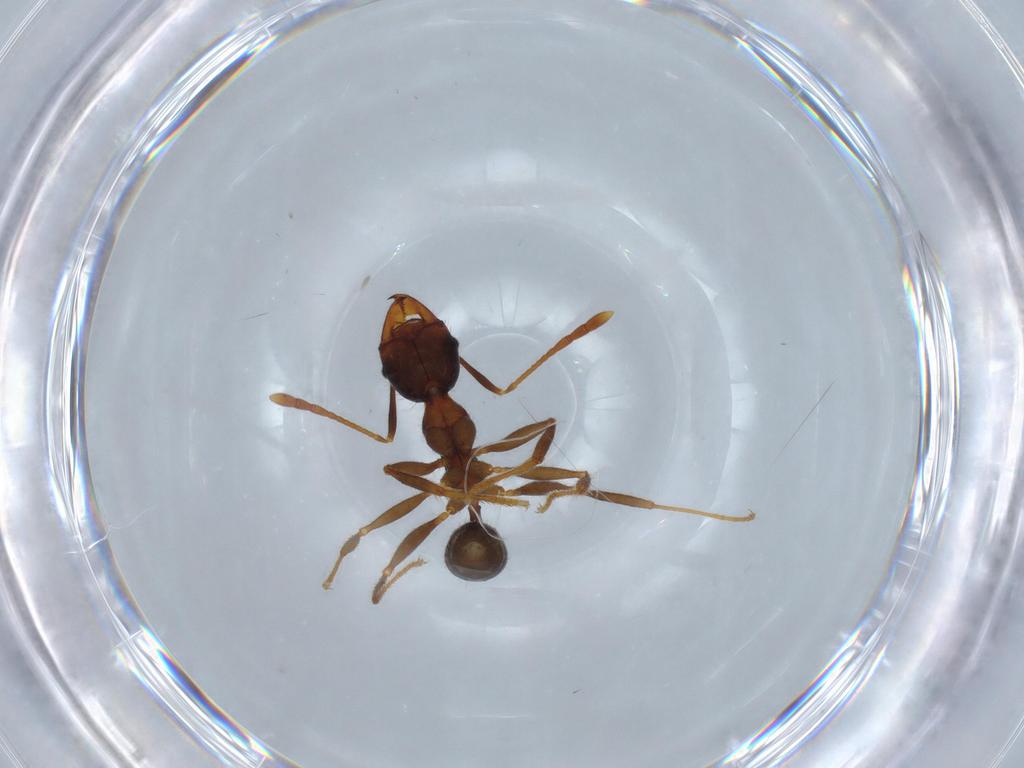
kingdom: Animalia
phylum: Arthropoda
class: Insecta
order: Hymenoptera
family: Formicidae
